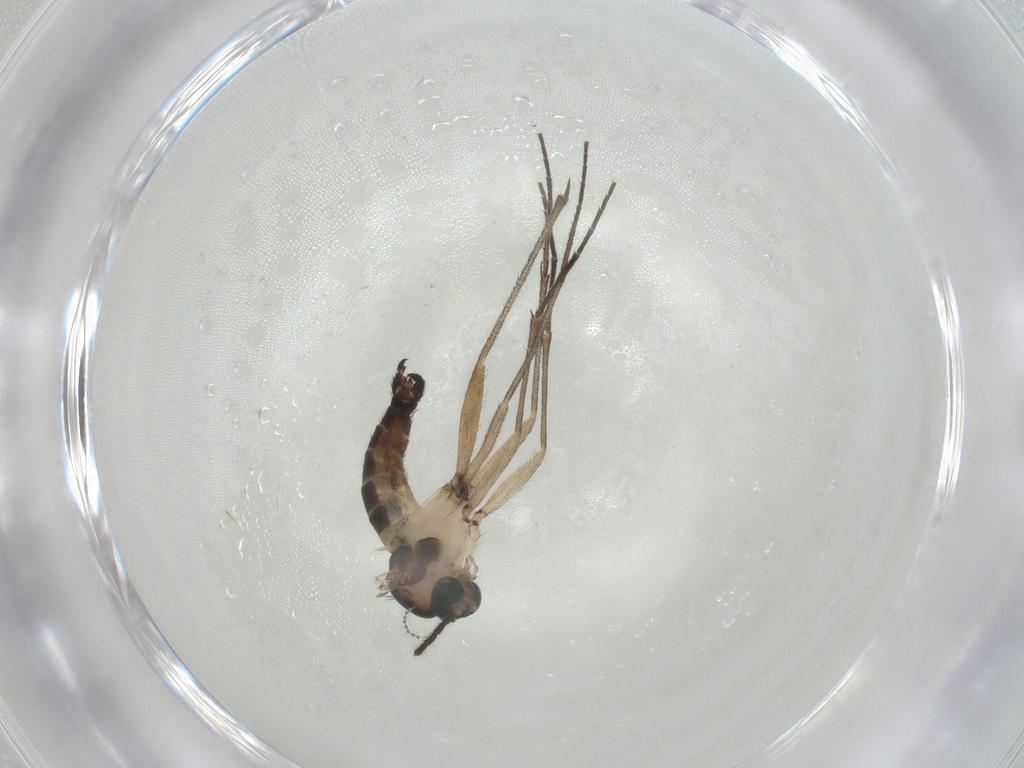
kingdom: Animalia
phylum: Arthropoda
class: Insecta
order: Diptera
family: Sciaridae
